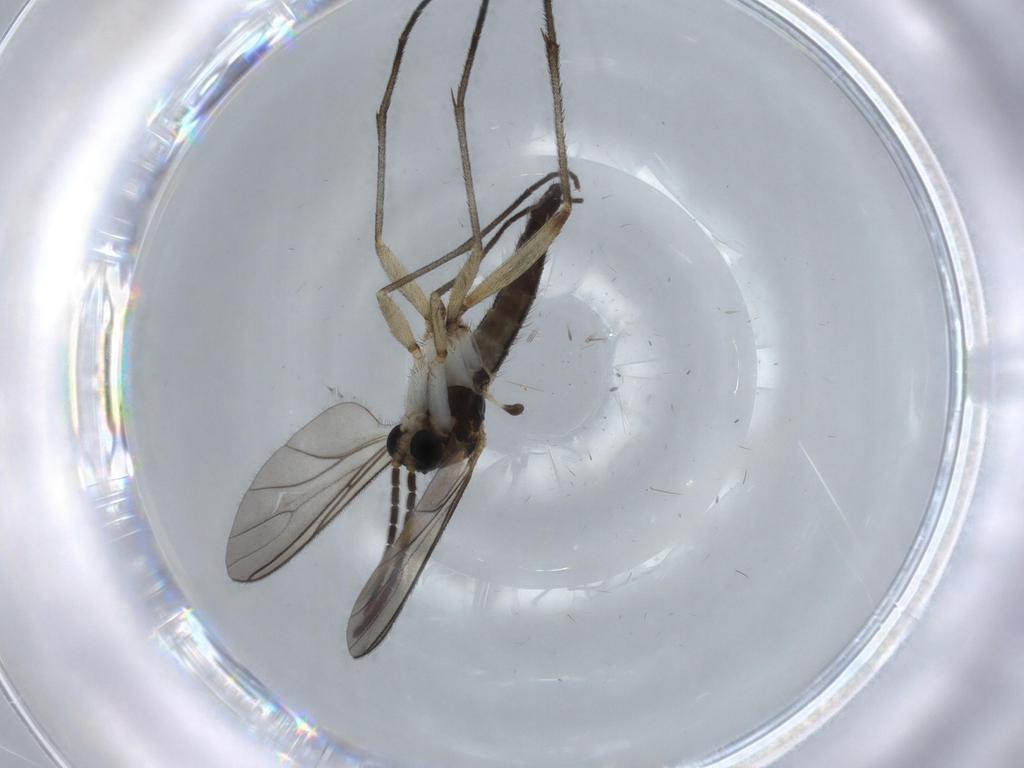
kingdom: Animalia
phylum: Arthropoda
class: Insecta
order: Diptera
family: Sciaridae
